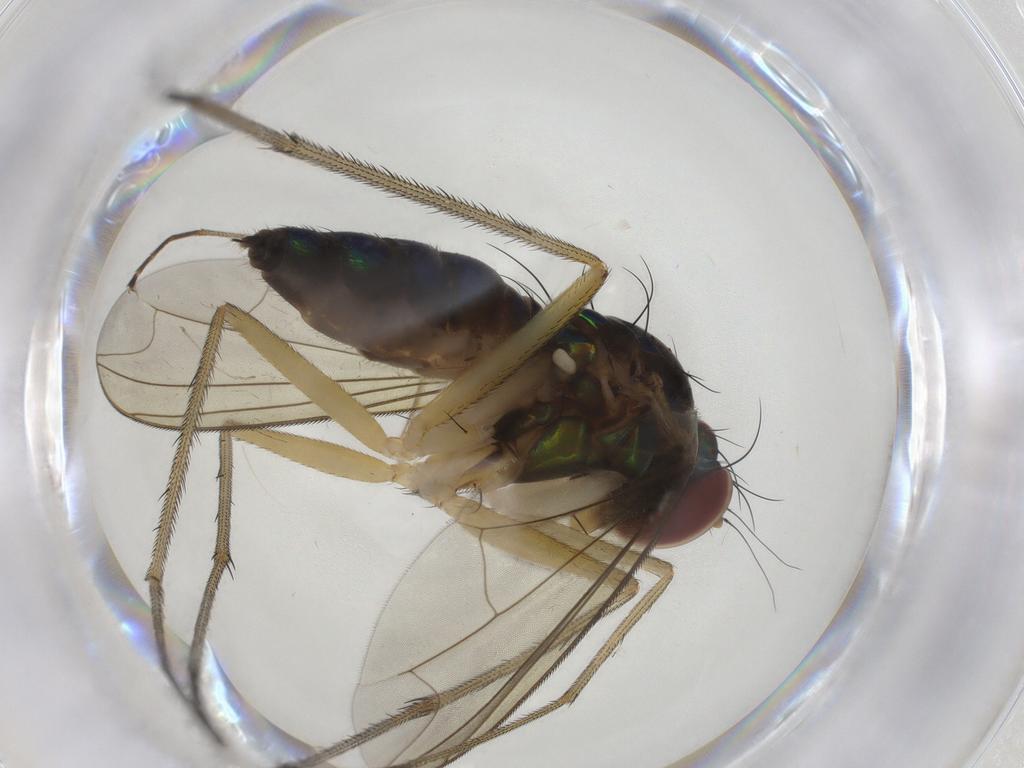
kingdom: Animalia
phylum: Arthropoda
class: Insecta
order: Diptera
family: Dolichopodidae
